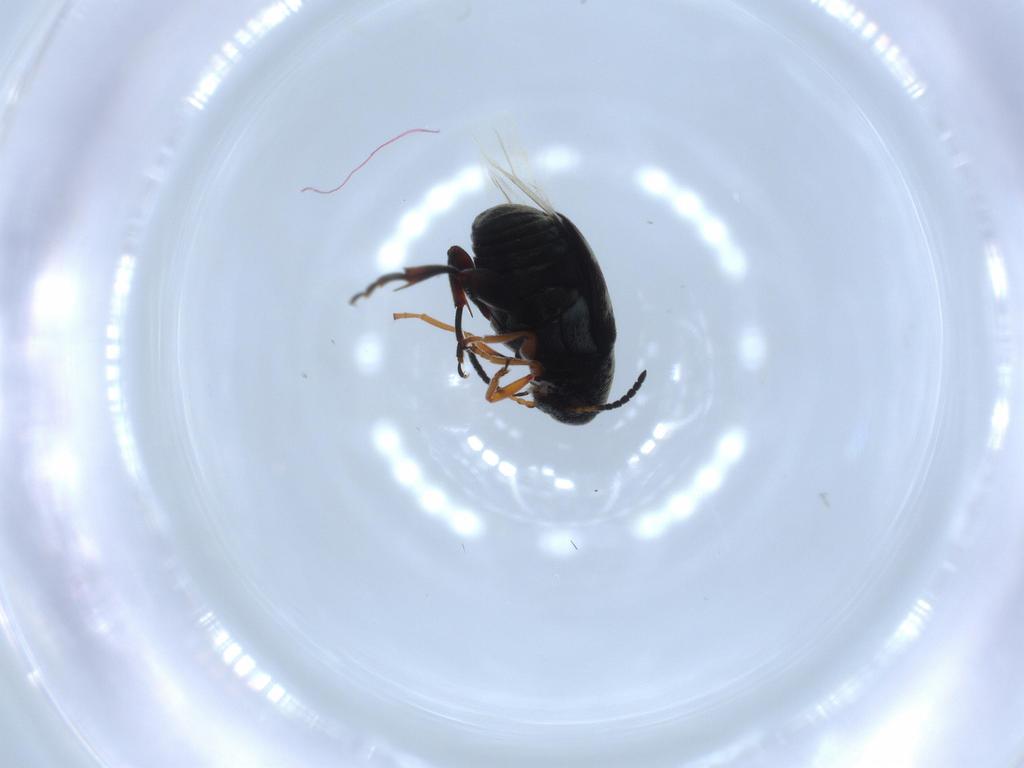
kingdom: Animalia
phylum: Arthropoda
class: Insecta
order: Coleoptera
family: Chrysomelidae
